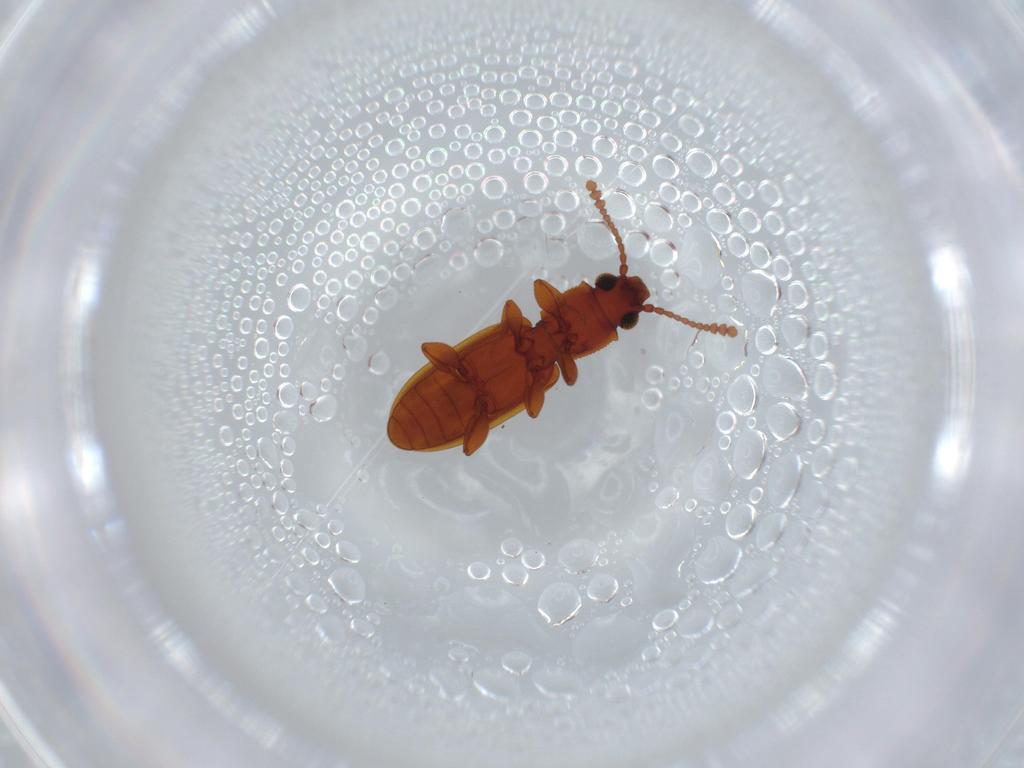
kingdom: Animalia
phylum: Arthropoda
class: Insecta
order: Coleoptera
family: Silvanidae
